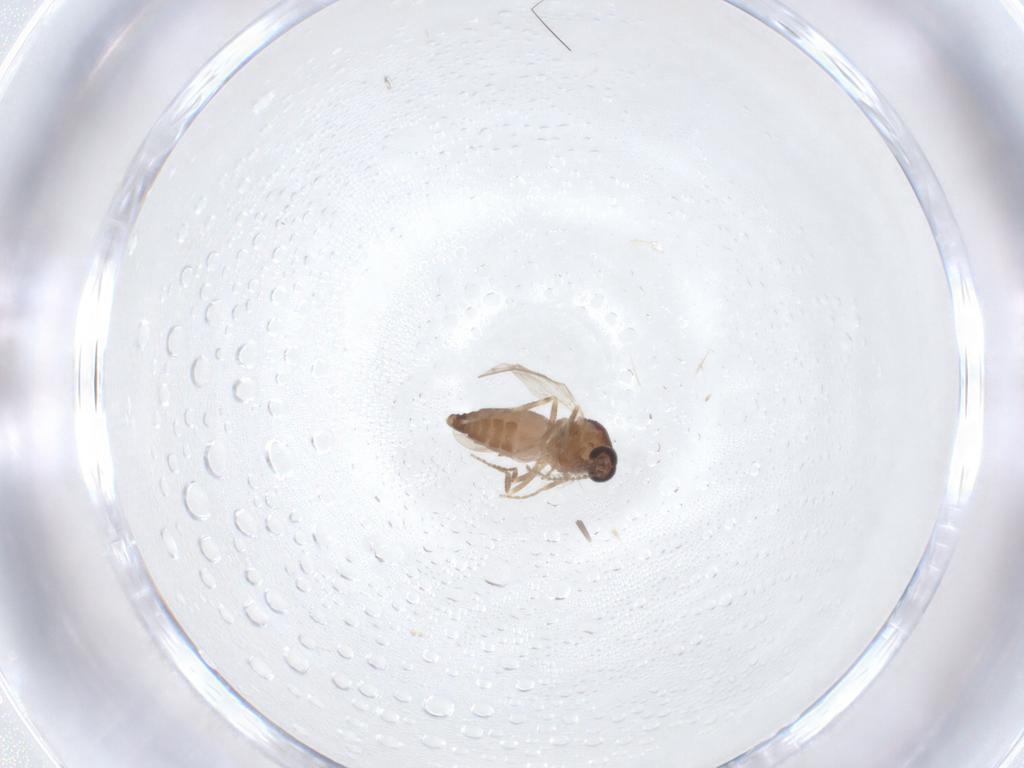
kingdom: Animalia
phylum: Arthropoda
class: Insecta
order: Diptera
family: Ceratopogonidae
